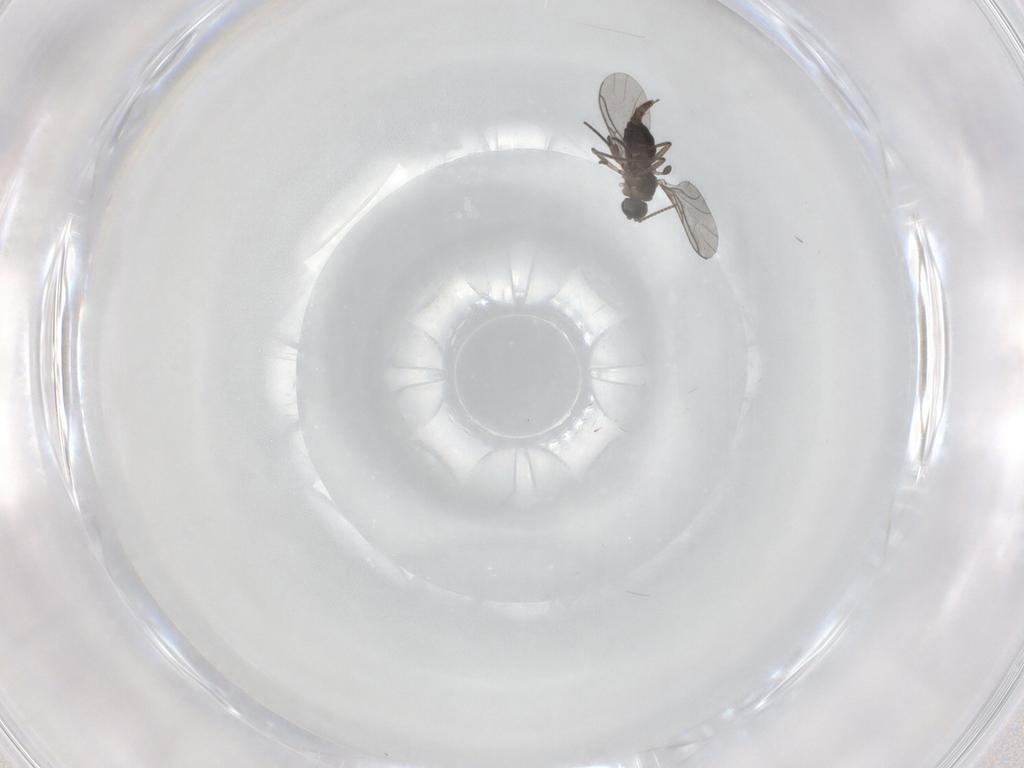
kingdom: Animalia
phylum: Arthropoda
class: Insecta
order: Diptera
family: Sciaridae
